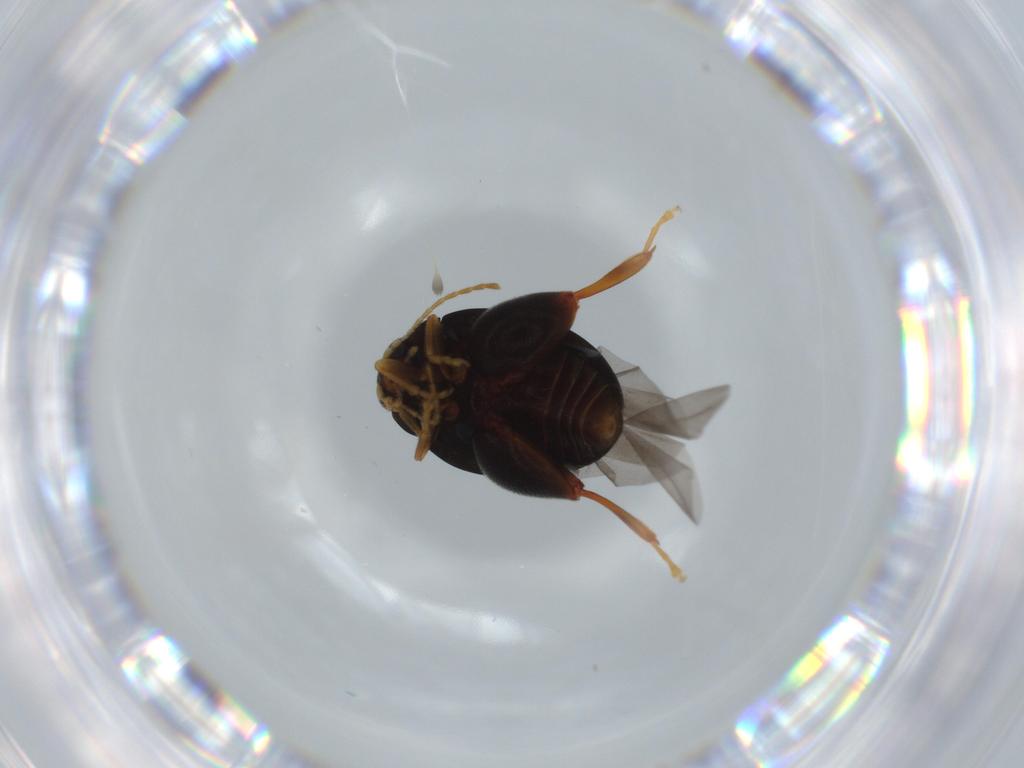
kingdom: Animalia
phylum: Arthropoda
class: Insecta
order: Coleoptera
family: Chrysomelidae
